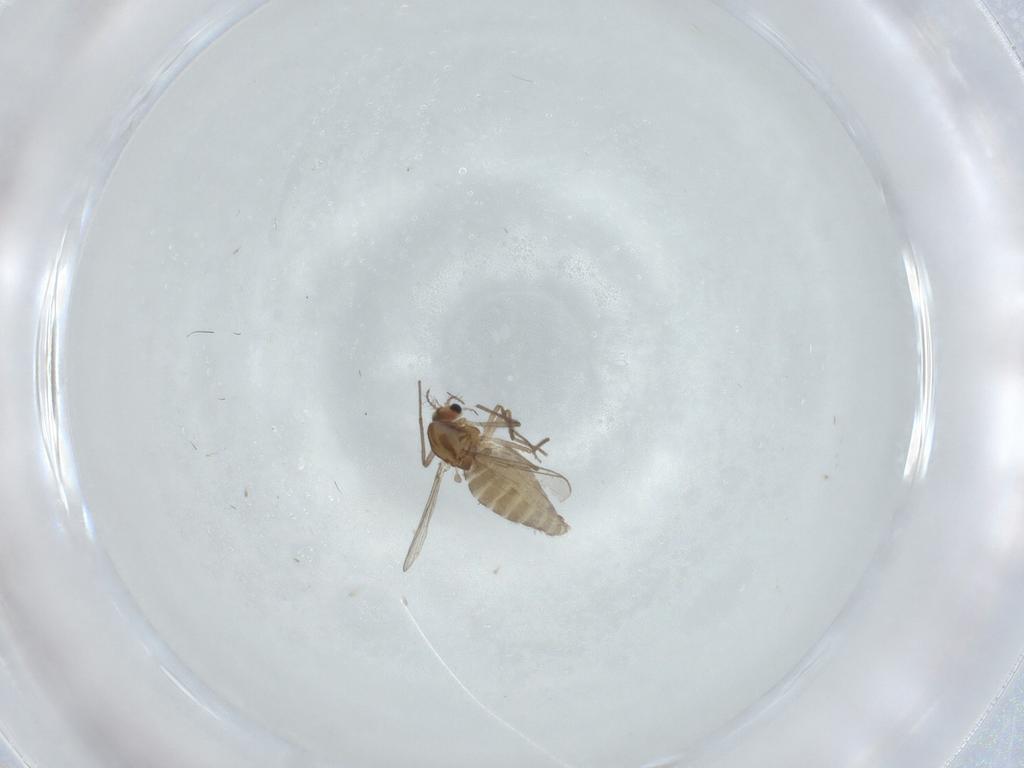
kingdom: Animalia
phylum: Arthropoda
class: Insecta
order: Diptera
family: Chironomidae
